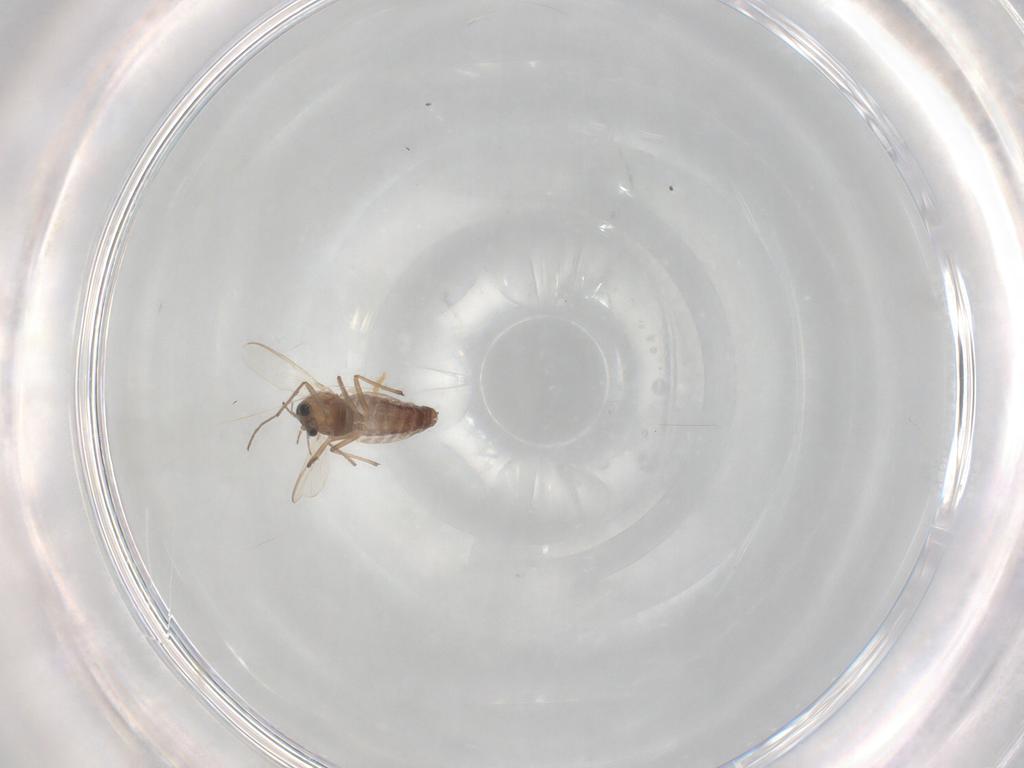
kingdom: Animalia
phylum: Arthropoda
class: Insecta
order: Diptera
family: Chironomidae
